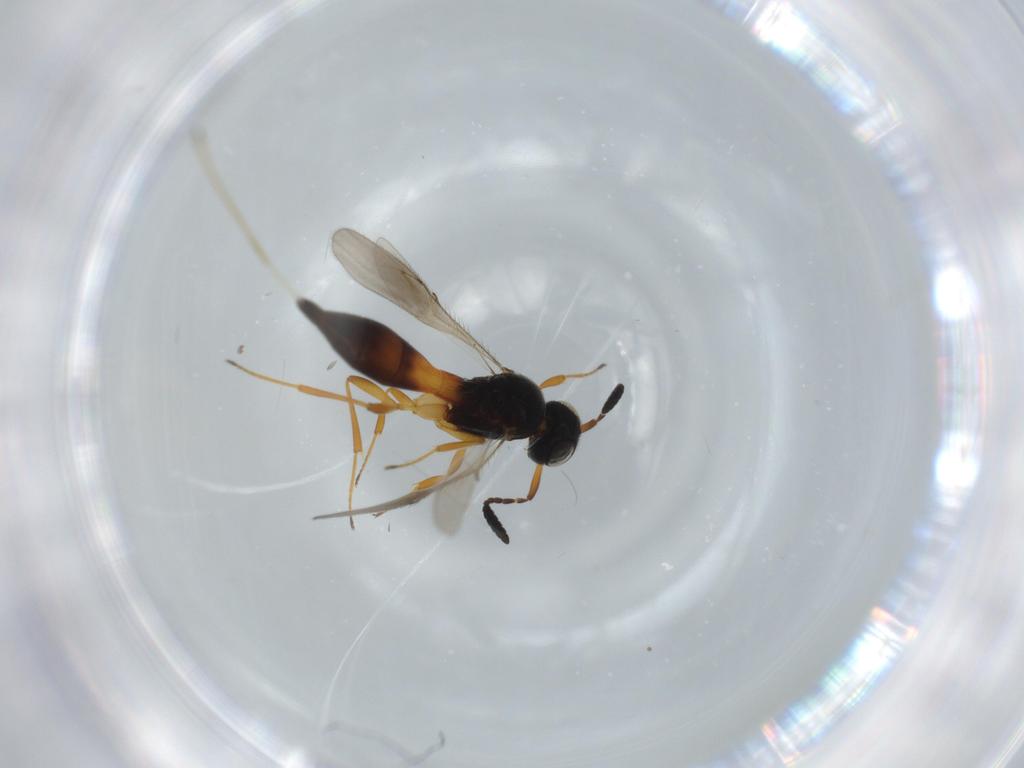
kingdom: Animalia
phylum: Arthropoda
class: Insecta
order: Hymenoptera
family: Scelionidae
